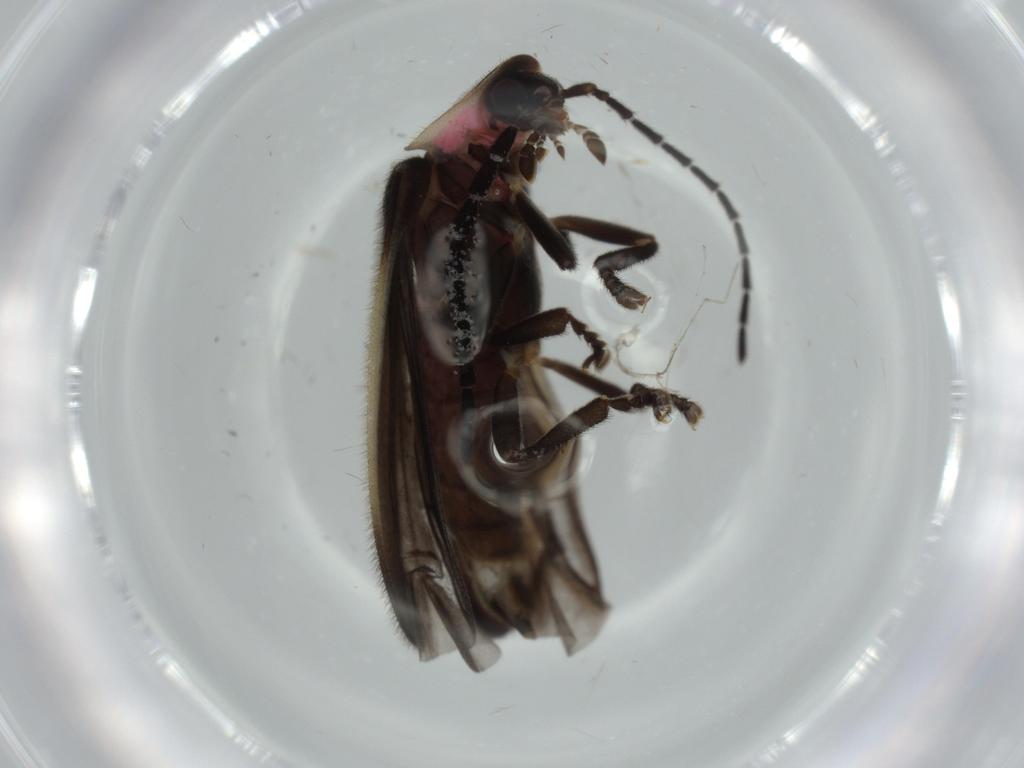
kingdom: Animalia
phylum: Arthropoda
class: Insecta
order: Coleoptera
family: Lampyridae
